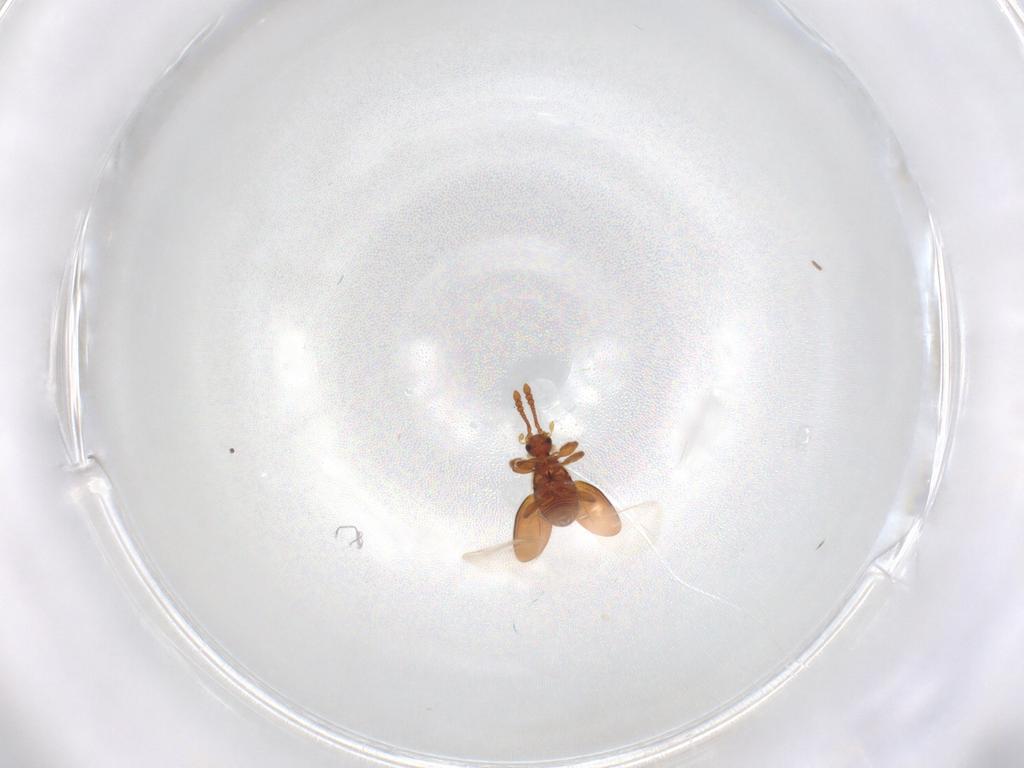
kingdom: Animalia
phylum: Arthropoda
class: Insecta
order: Coleoptera
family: Staphylinidae
